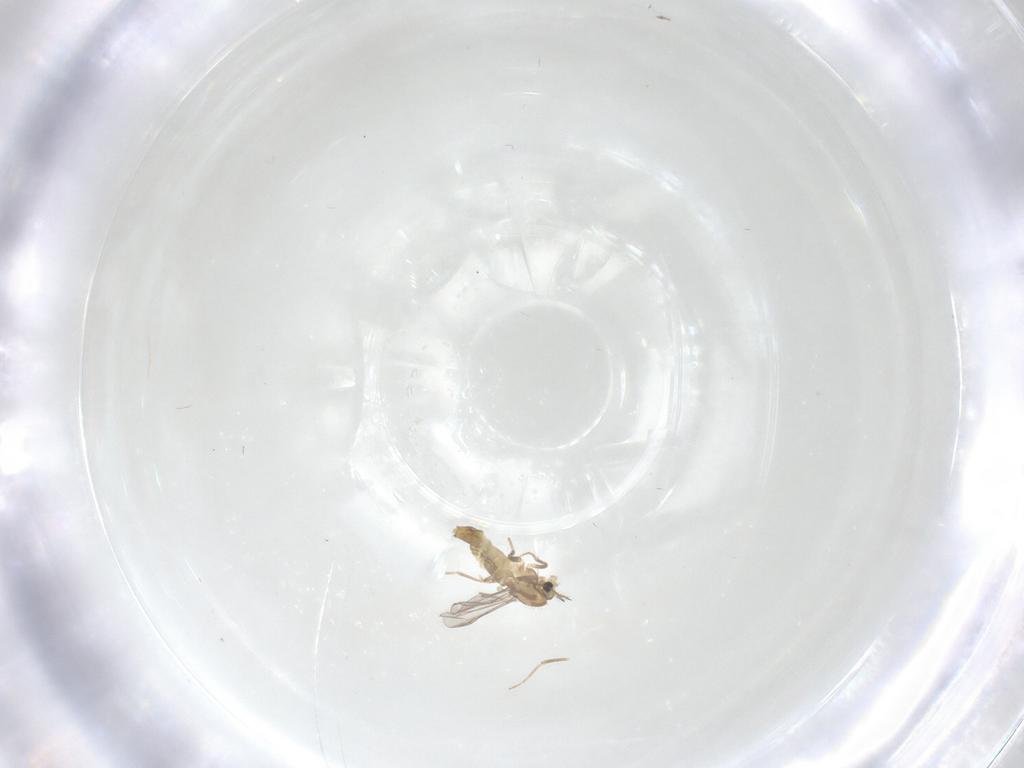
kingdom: Animalia
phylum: Arthropoda
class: Insecta
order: Diptera
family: Chironomidae
